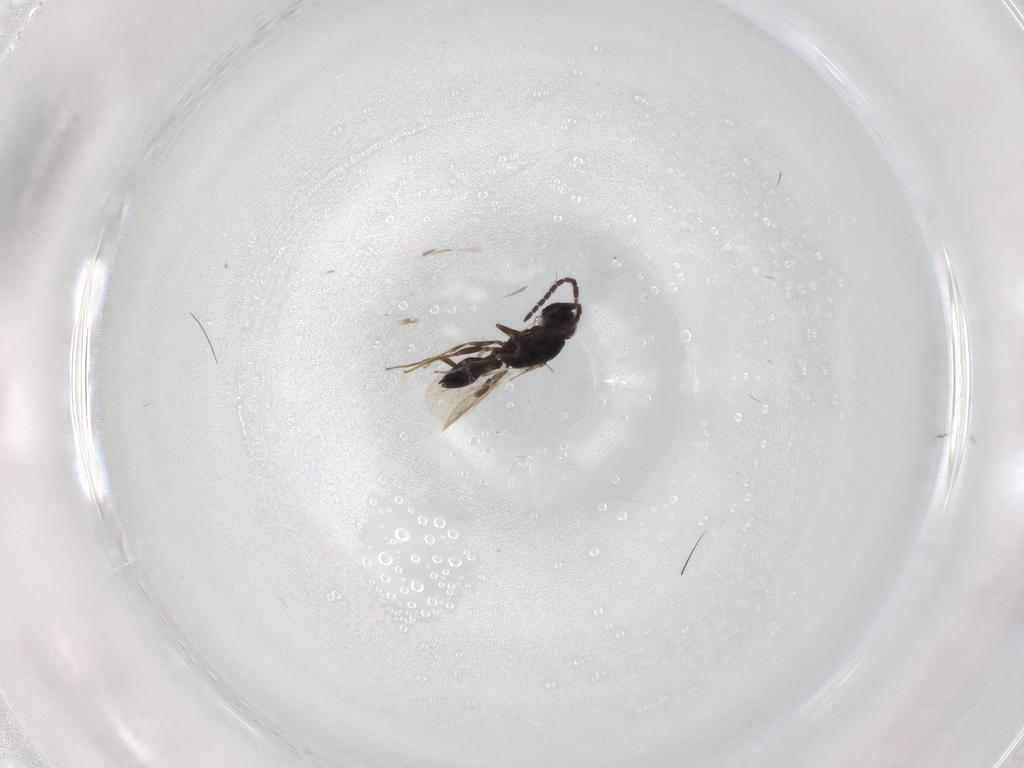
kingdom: Animalia
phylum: Arthropoda
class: Insecta
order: Hymenoptera
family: Formicidae
